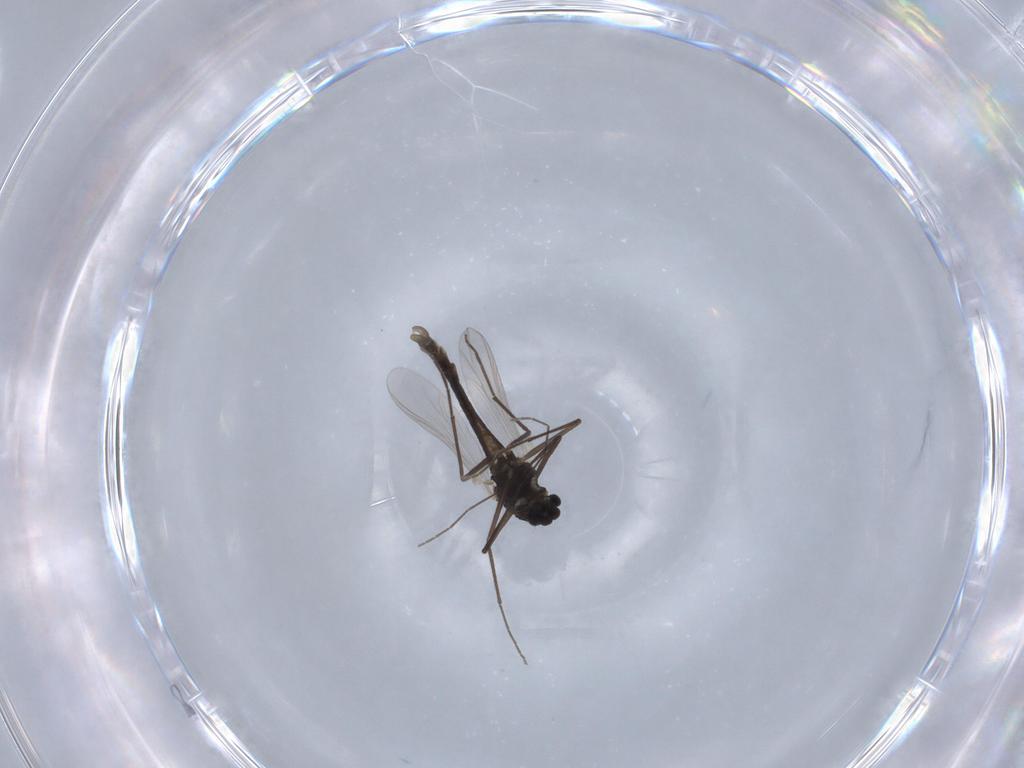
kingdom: Animalia
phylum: Arthropoda
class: Insecta
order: Diptera
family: Chironomidae
